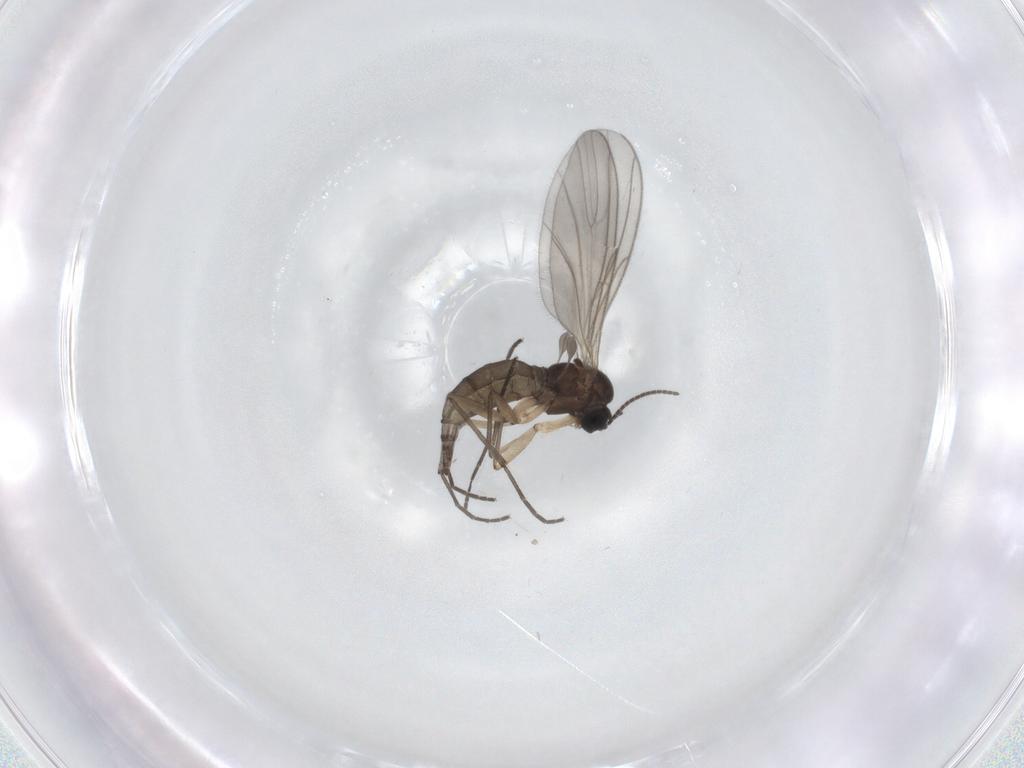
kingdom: Animalia
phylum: Arthropoda
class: Insecta
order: Diptera
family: Sciaridae
